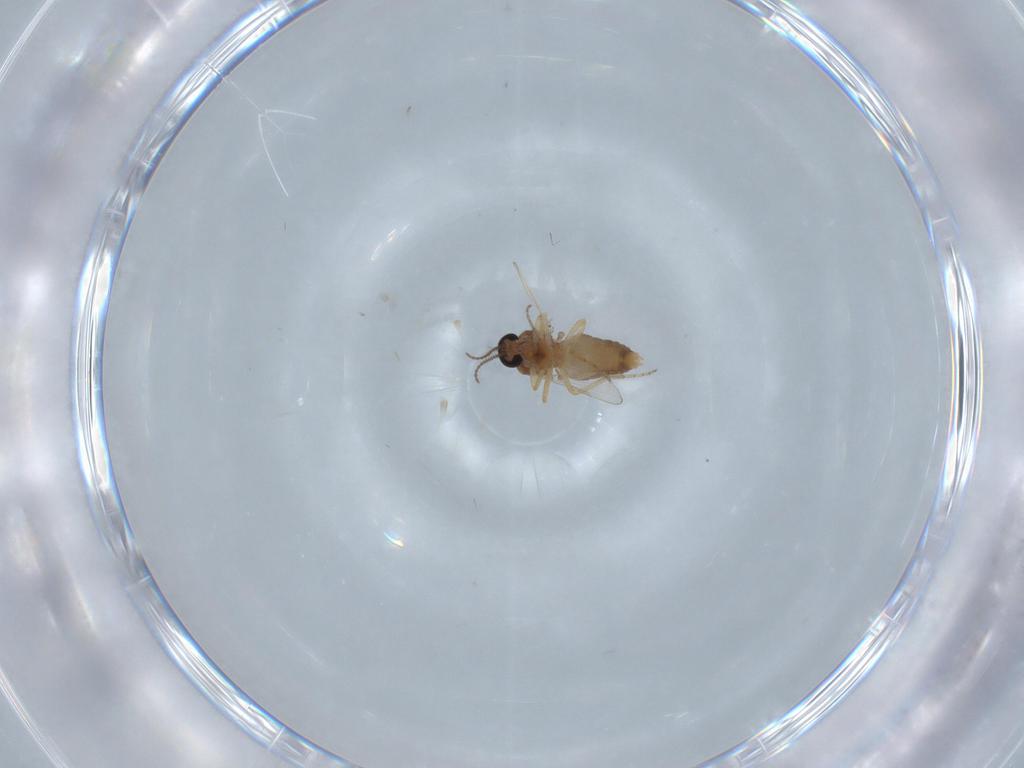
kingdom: Animalia
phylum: Arthropoda
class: Insecta
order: Diptera
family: Ceratopogonidae
